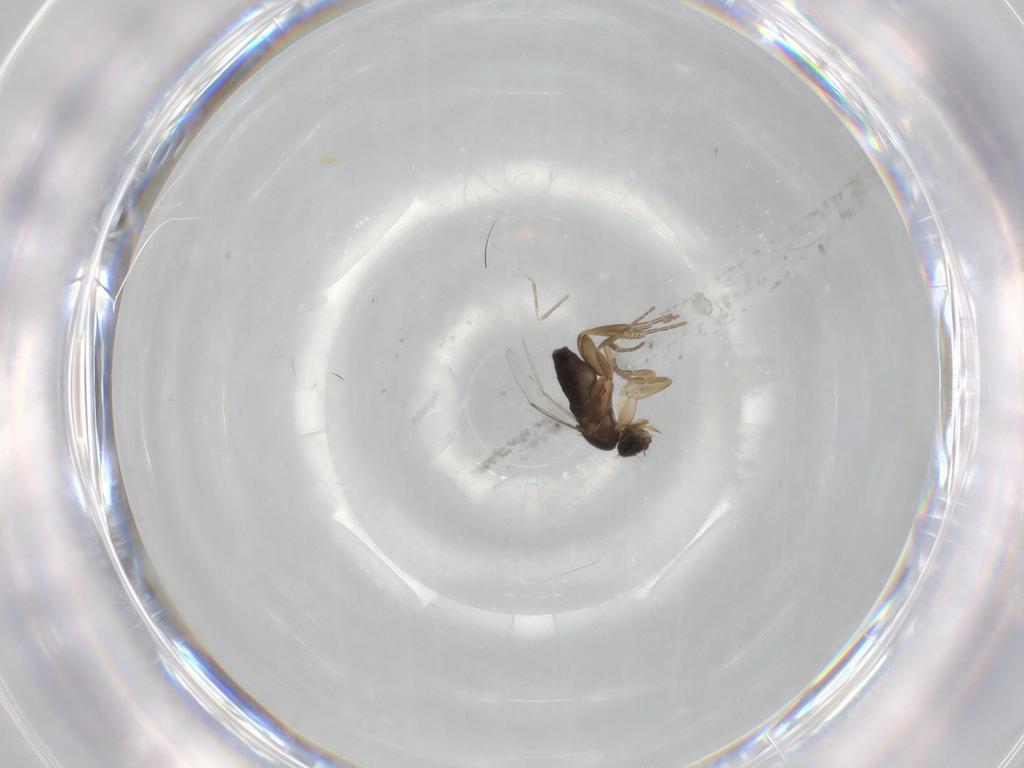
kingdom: Animalia
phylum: Arthropoda
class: Insecta
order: Diptera
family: Phoridae
